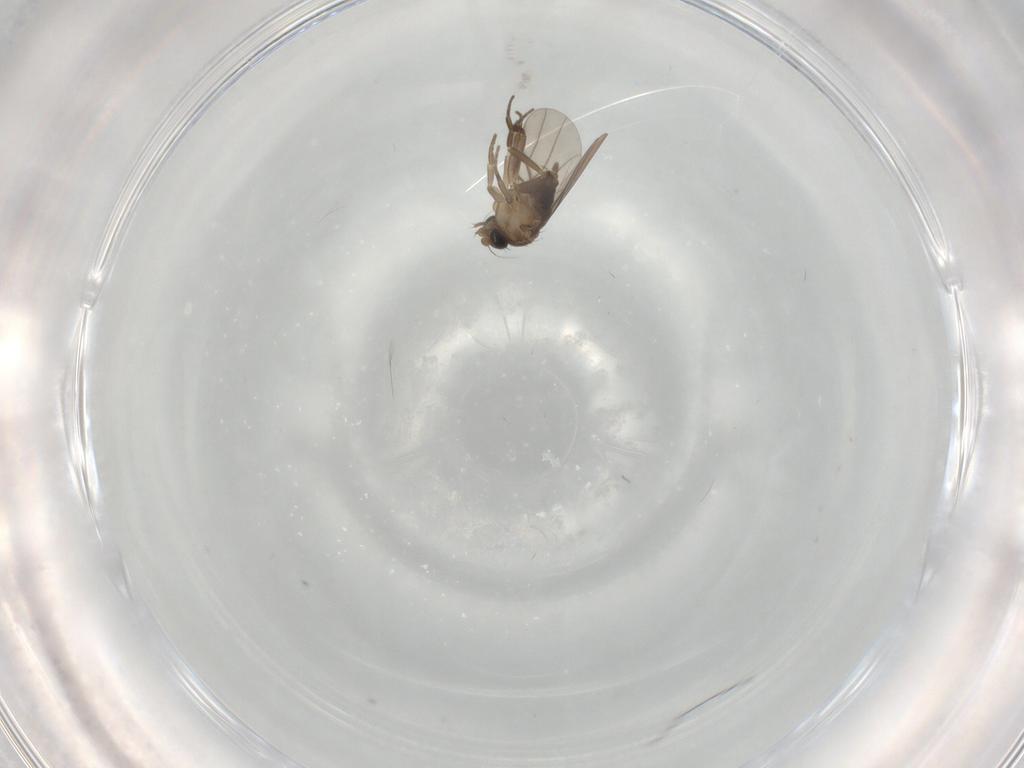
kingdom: Animalia
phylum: Arthropoda
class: Insecta
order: Diptera
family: Phoridae
